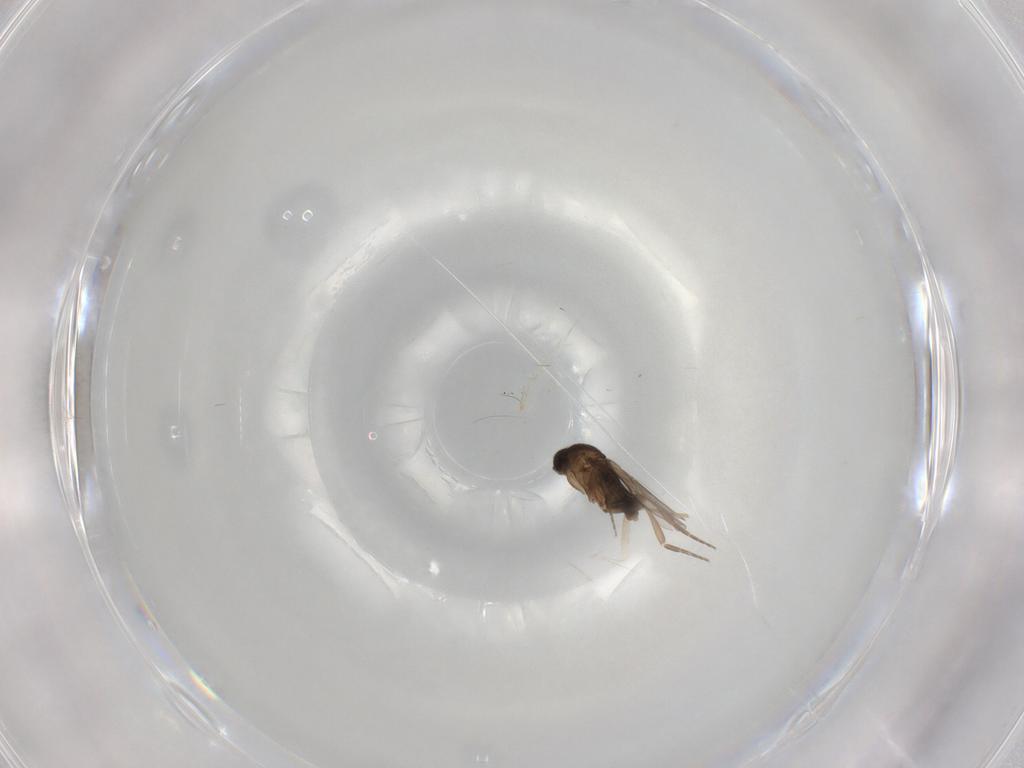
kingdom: Animalia
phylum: Arthropoda
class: Insecta
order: Diptera
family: Phoridae
